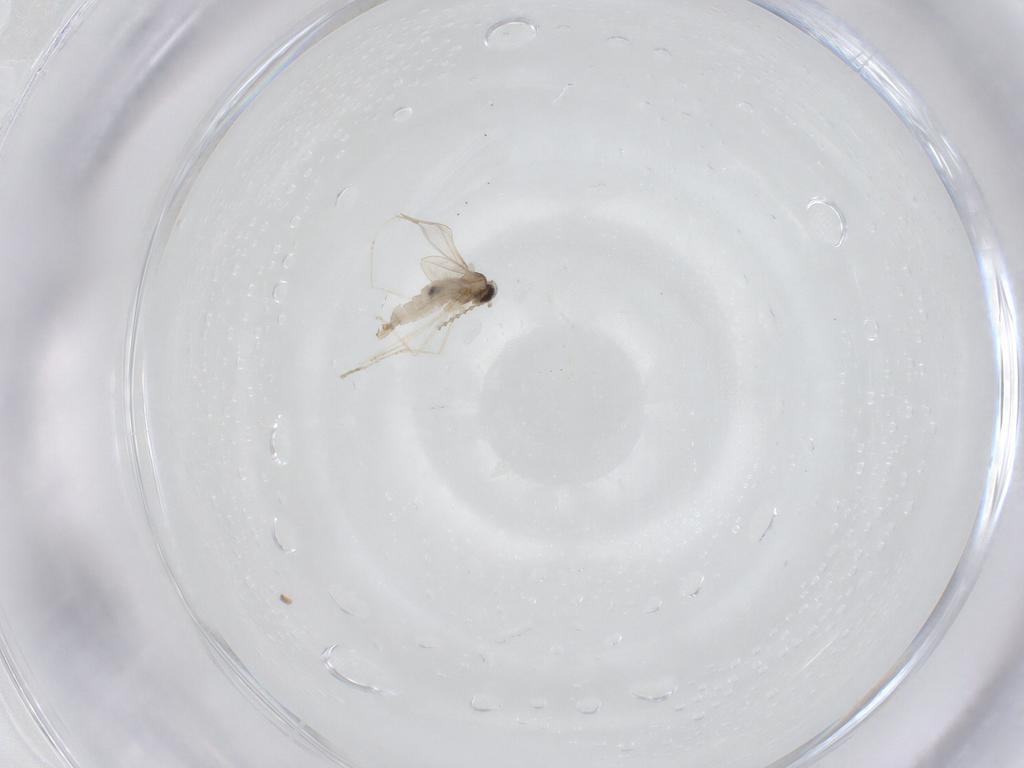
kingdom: Animalia
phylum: Arthropoda
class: Insecta
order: Diptera
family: Cecidomyiidae
